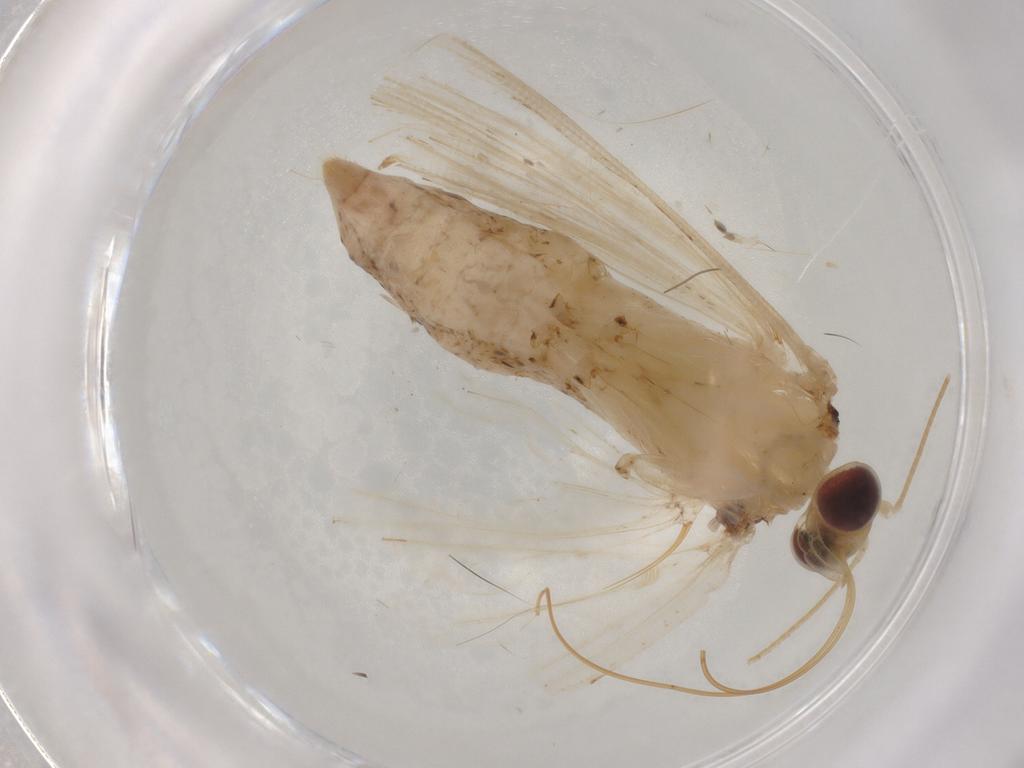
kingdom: Animalia
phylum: Arthropoda
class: Insecta
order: Lepidoptera
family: Crambidae
